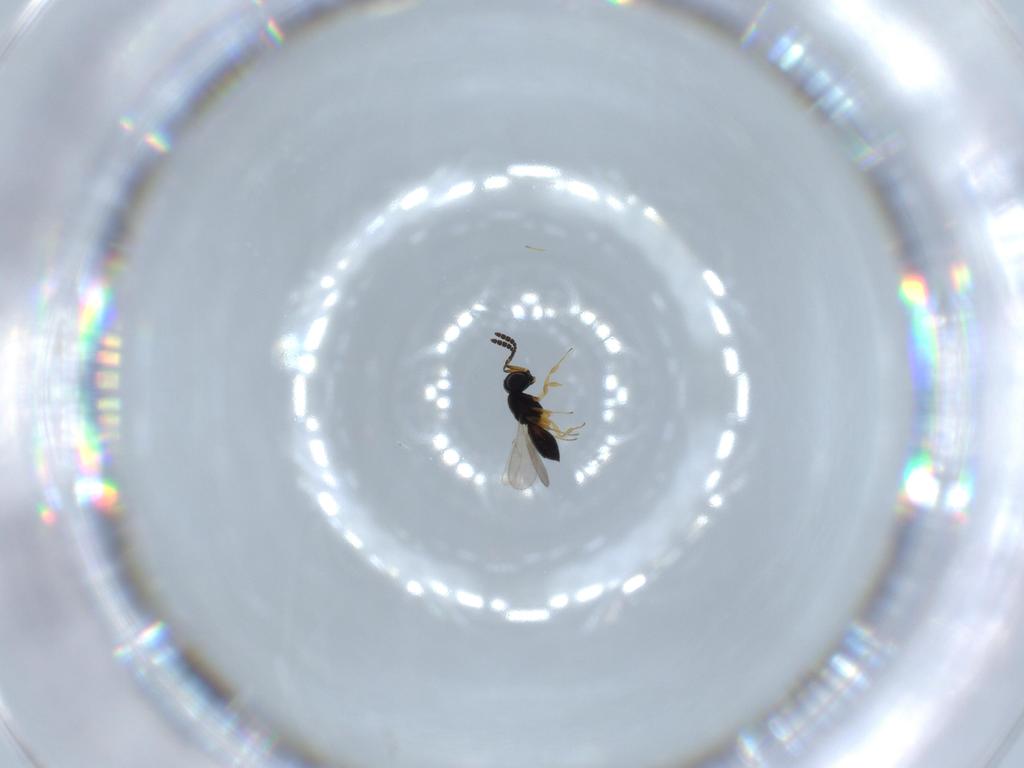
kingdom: Animalia
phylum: Arthropoda
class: Insecta
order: Hymenoptera
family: Scelionidae
